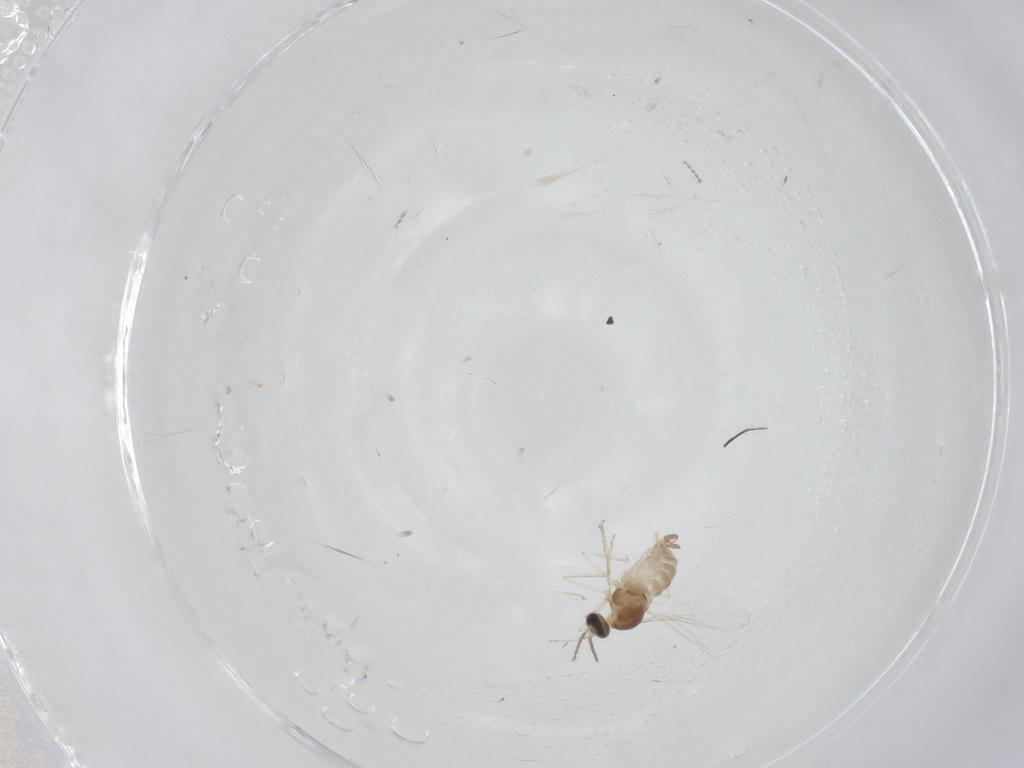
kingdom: Animalia
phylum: Arthropoda
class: Insecta
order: Diptera
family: Cecidomyiidae
